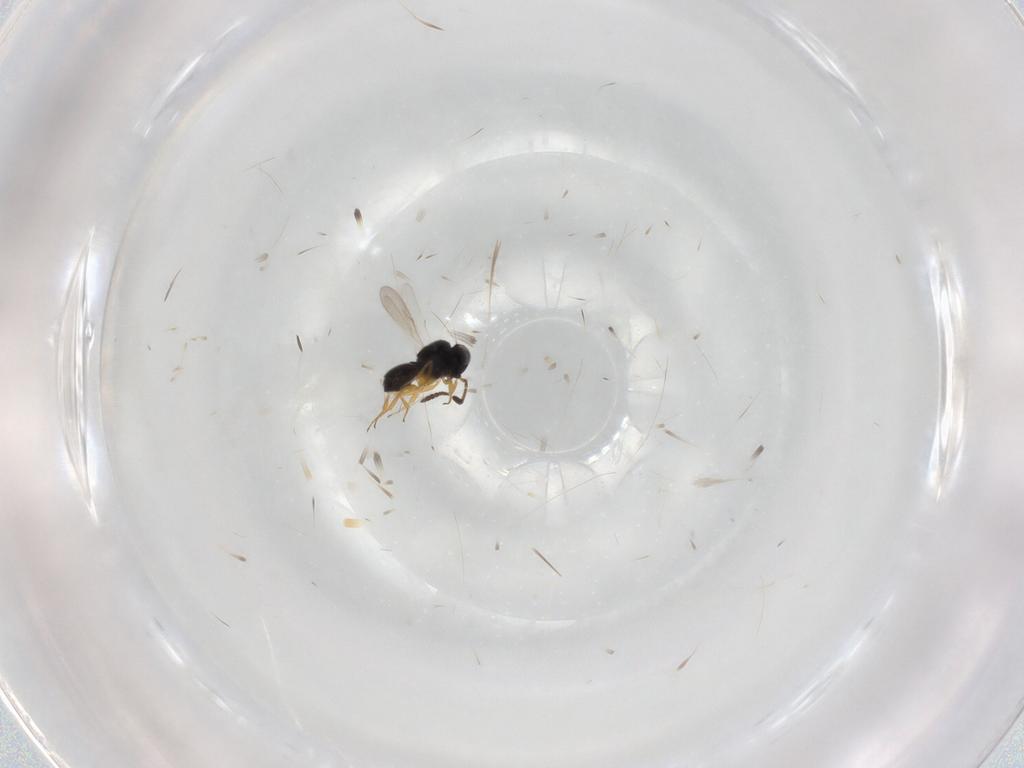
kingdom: Animalia
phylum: Arthropoda
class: Insecta
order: Hymenoptera
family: Scelionidae
